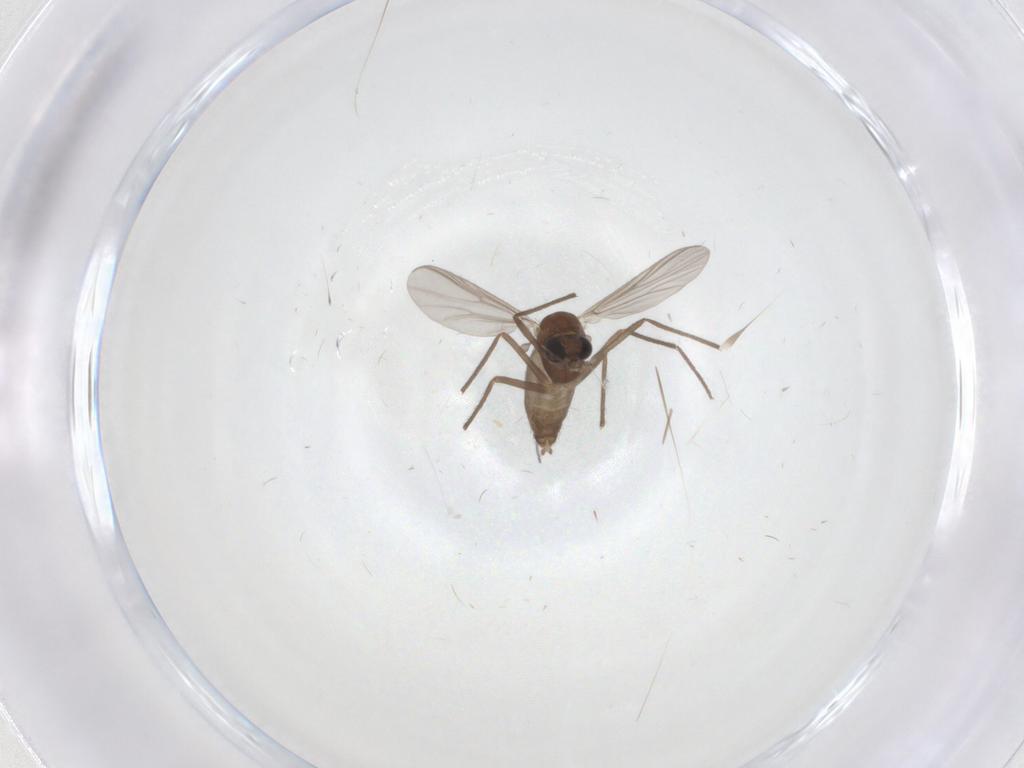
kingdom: Animalia
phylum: Arthropoda
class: Insecta
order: Diptera
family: Chironomidae
